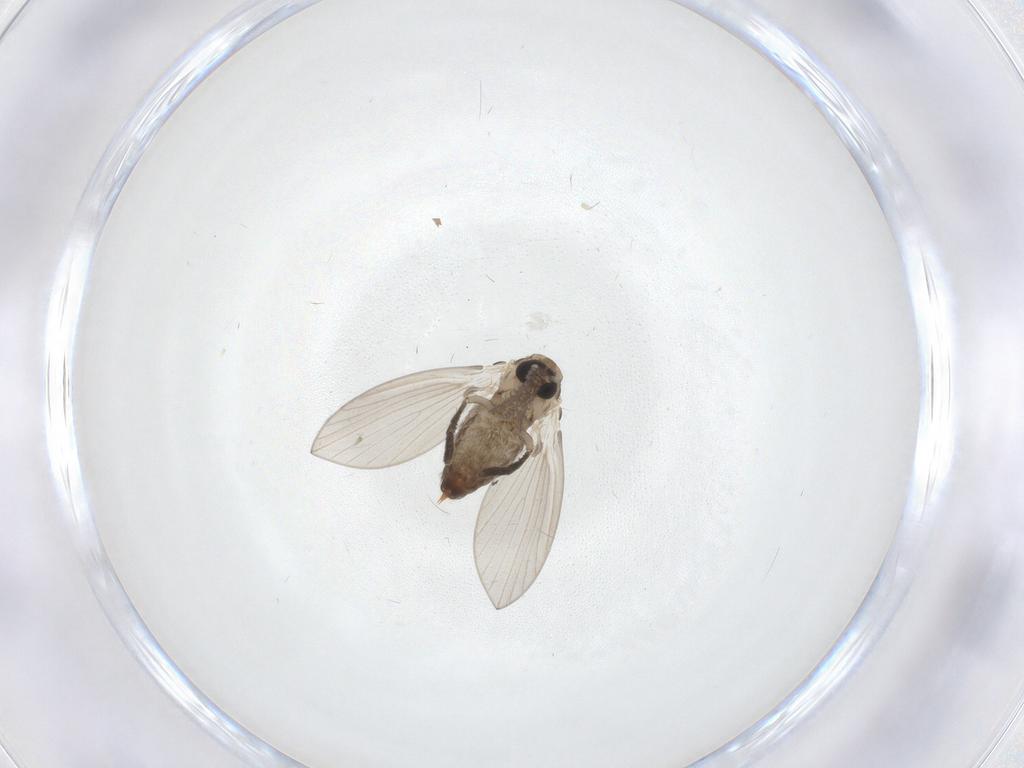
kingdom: Animalia
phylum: Arthropoda
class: Insecta
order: Diptera
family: Psychodidae
